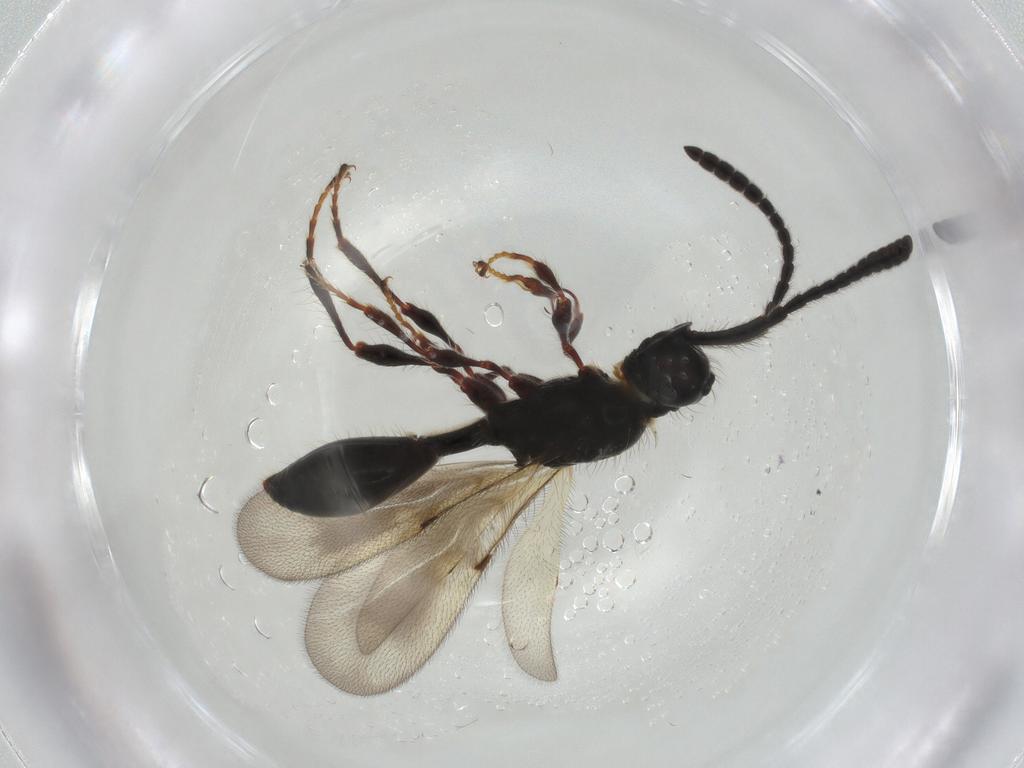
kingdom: Animalia
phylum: Arthropoda
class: Insecta
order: Hymenoptera
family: Diapriidae
